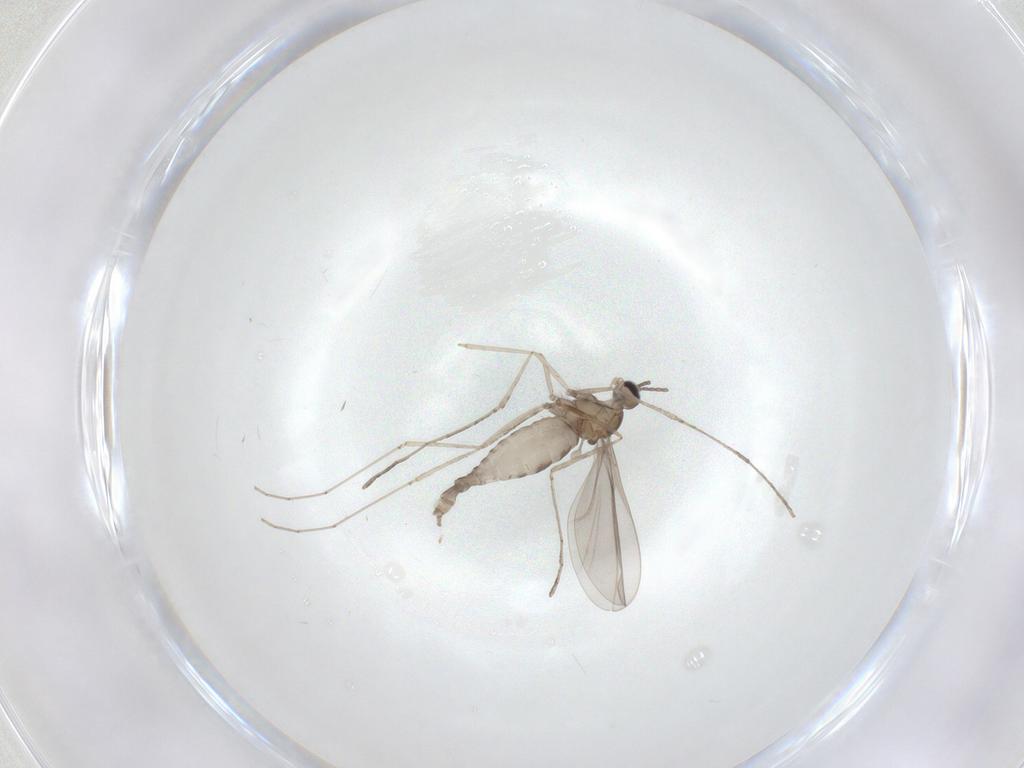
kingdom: Animalia
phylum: Arthropoda
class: Insecta
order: Diptera
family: Cecidomyiidae
